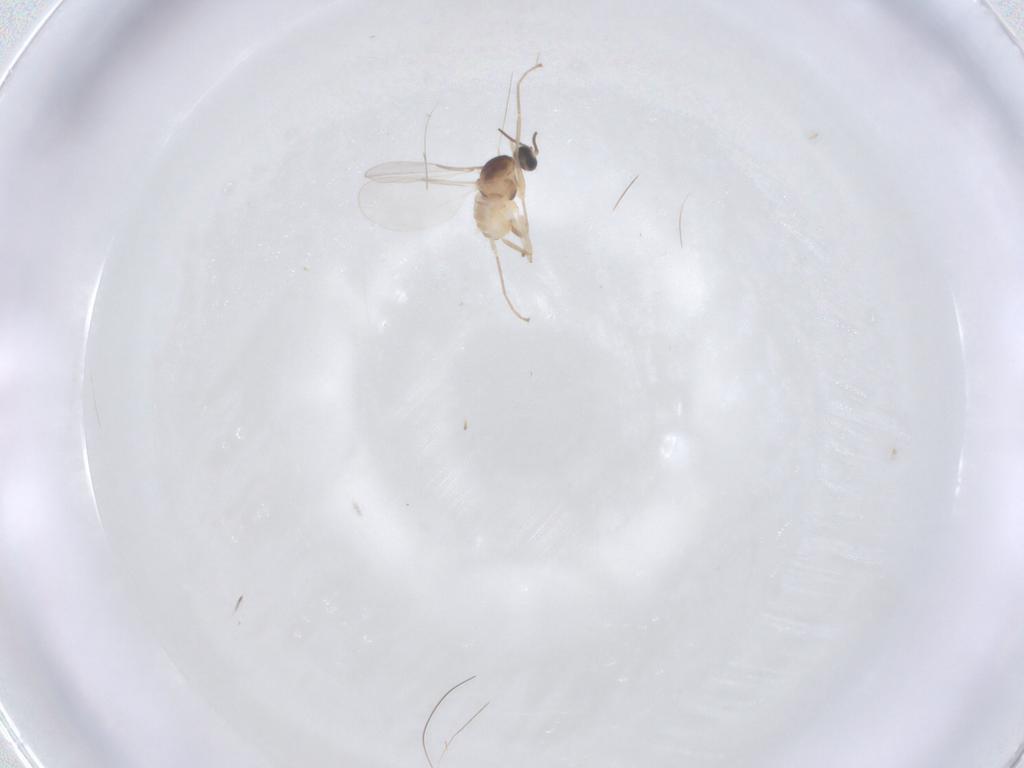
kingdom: Animalia
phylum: Arthropoda
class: Insecta
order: Diptera
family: Cecidomyiidae
